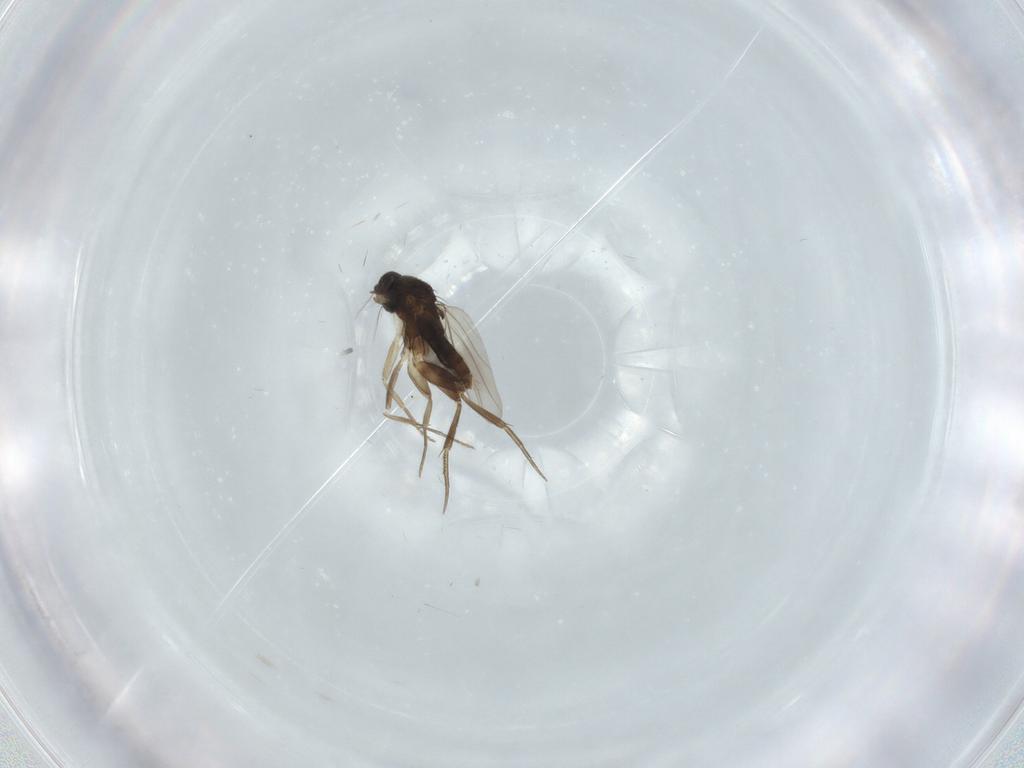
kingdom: Animalia
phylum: Arthropoda
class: Insecta
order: Diptera
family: Phoridae
